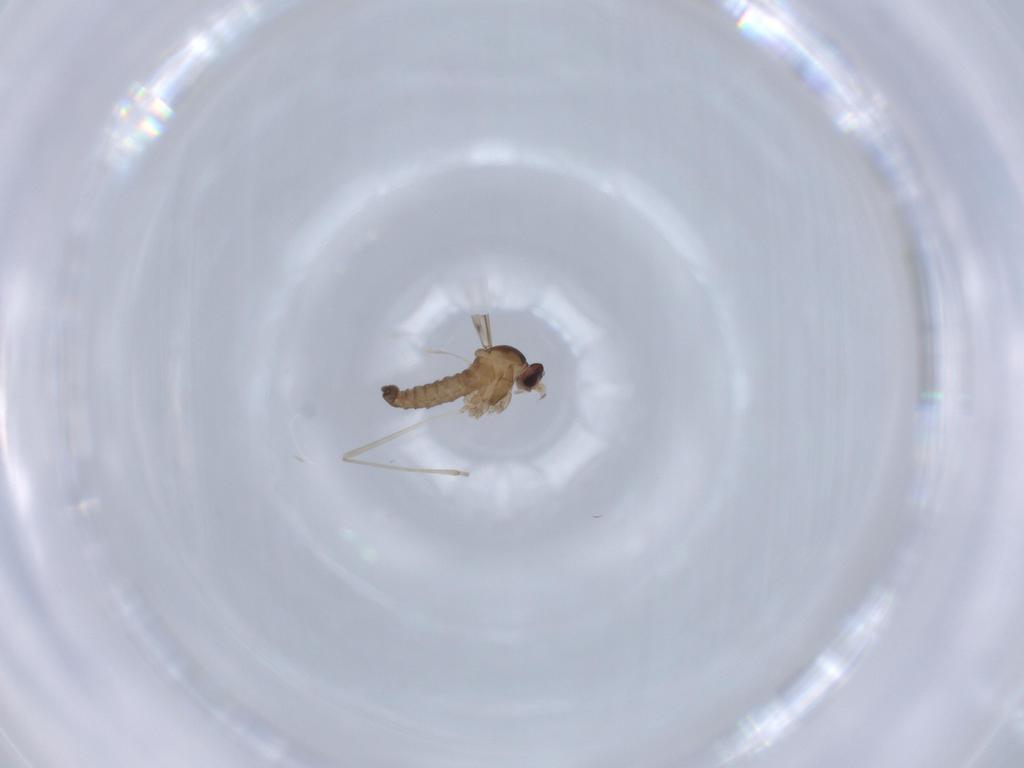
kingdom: Animalia
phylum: Arthropoda
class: Insecta
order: Diptera
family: Cecidomyiidae
